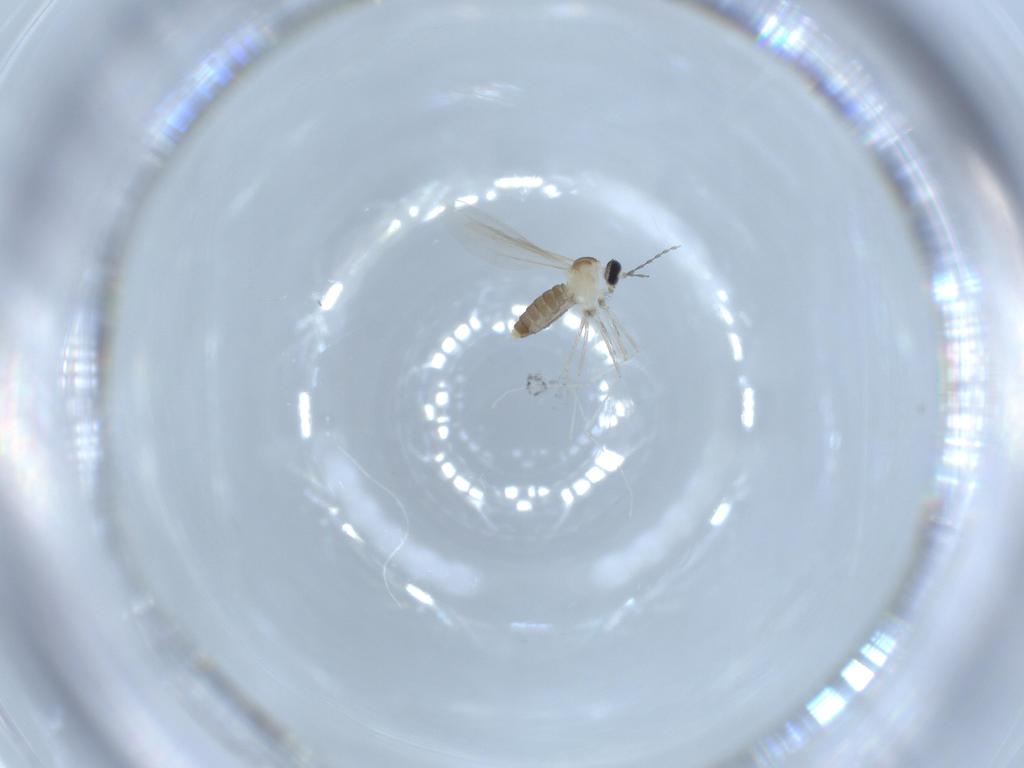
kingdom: Animalia
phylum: Arthropoda
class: Insecta
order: Diptera
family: Cecidomyiidae
